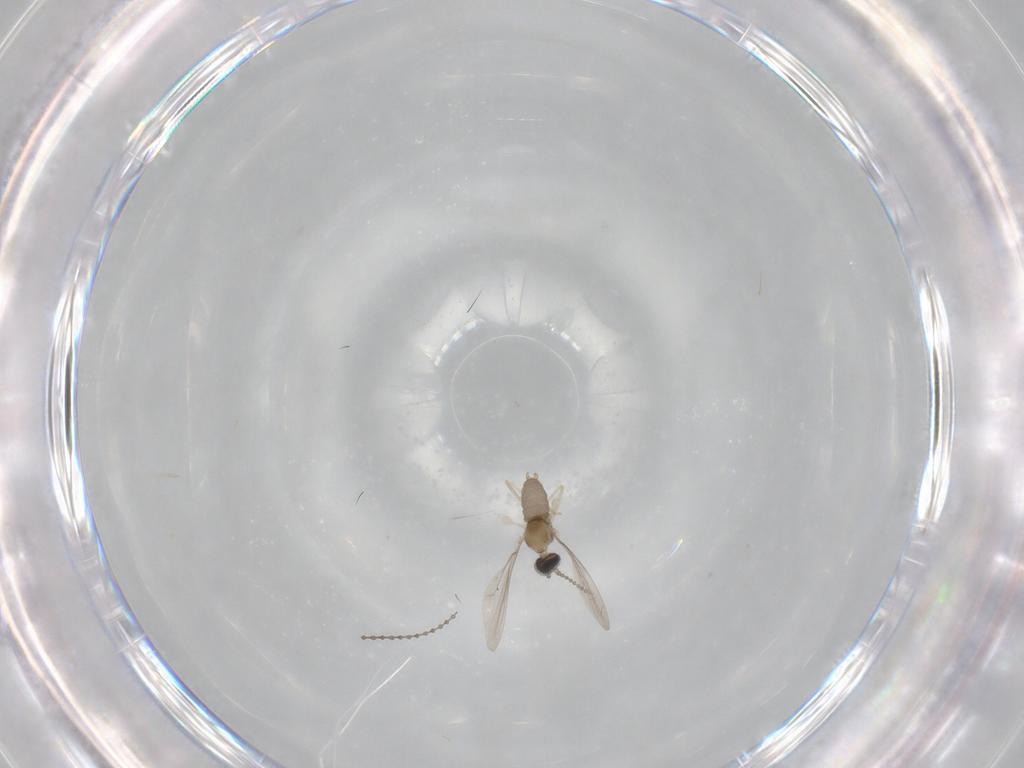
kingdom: Animalia
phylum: Arthropoda
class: Insecta
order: Diptera
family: Cecidomyiidae
